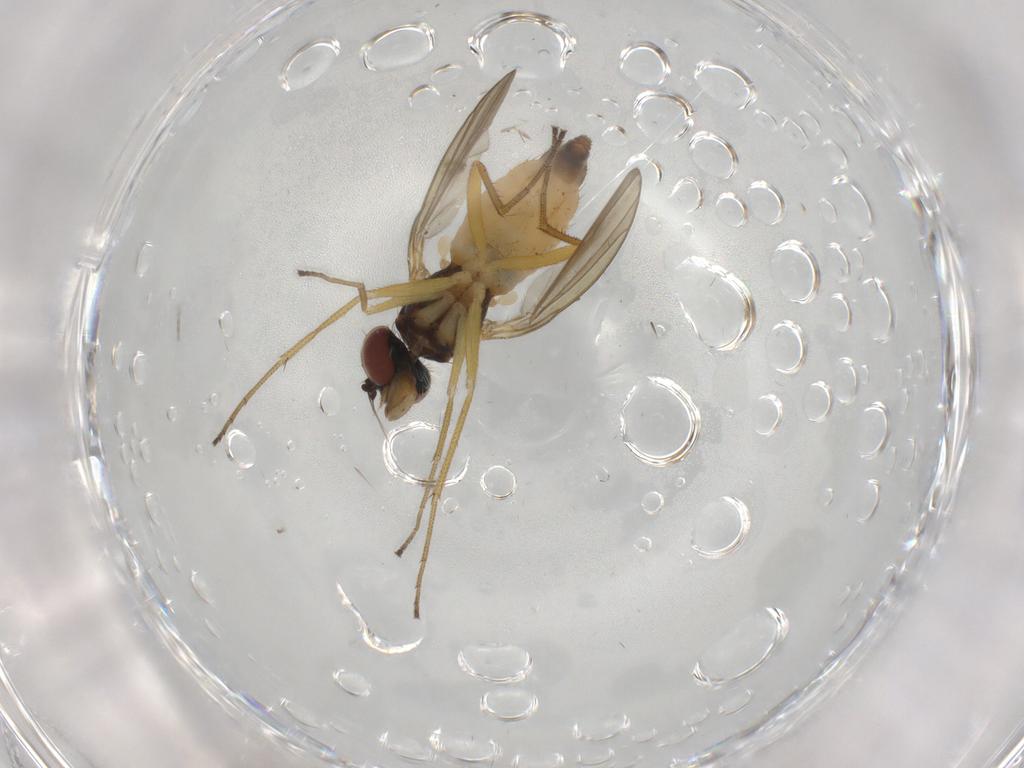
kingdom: Animalia
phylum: Arthropoda
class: Insecta
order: Diptera
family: Dolichopodidae
